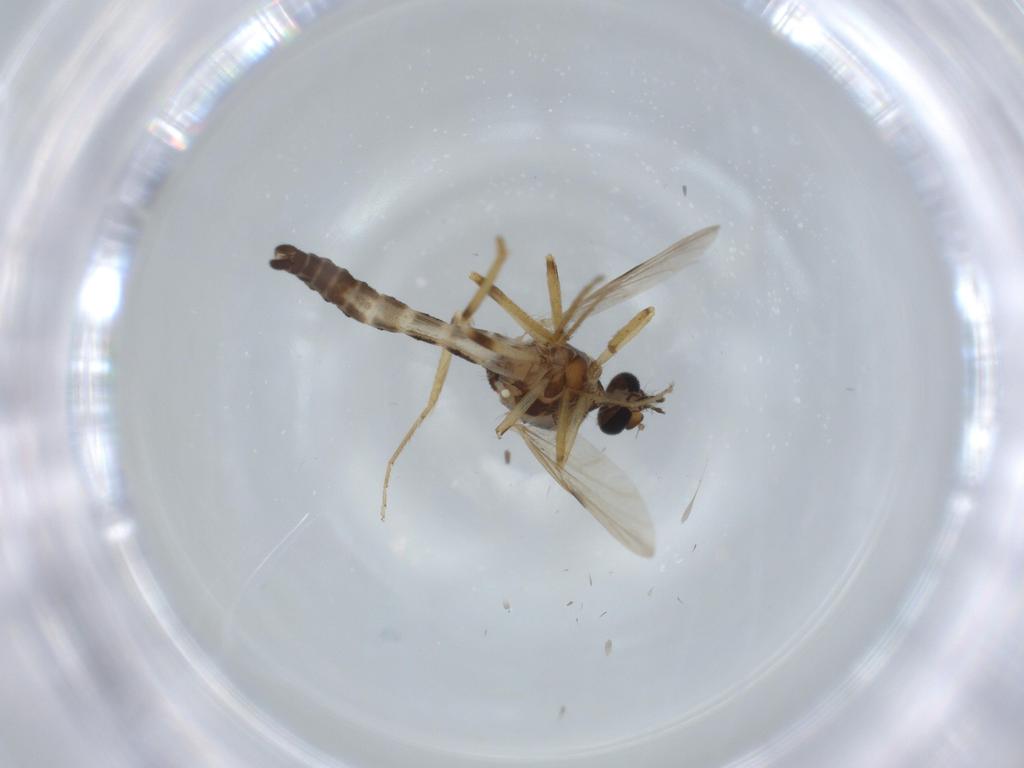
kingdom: Animalia
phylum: Arthropoda
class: Insecta
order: Diptera
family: Ceratopogonidae
